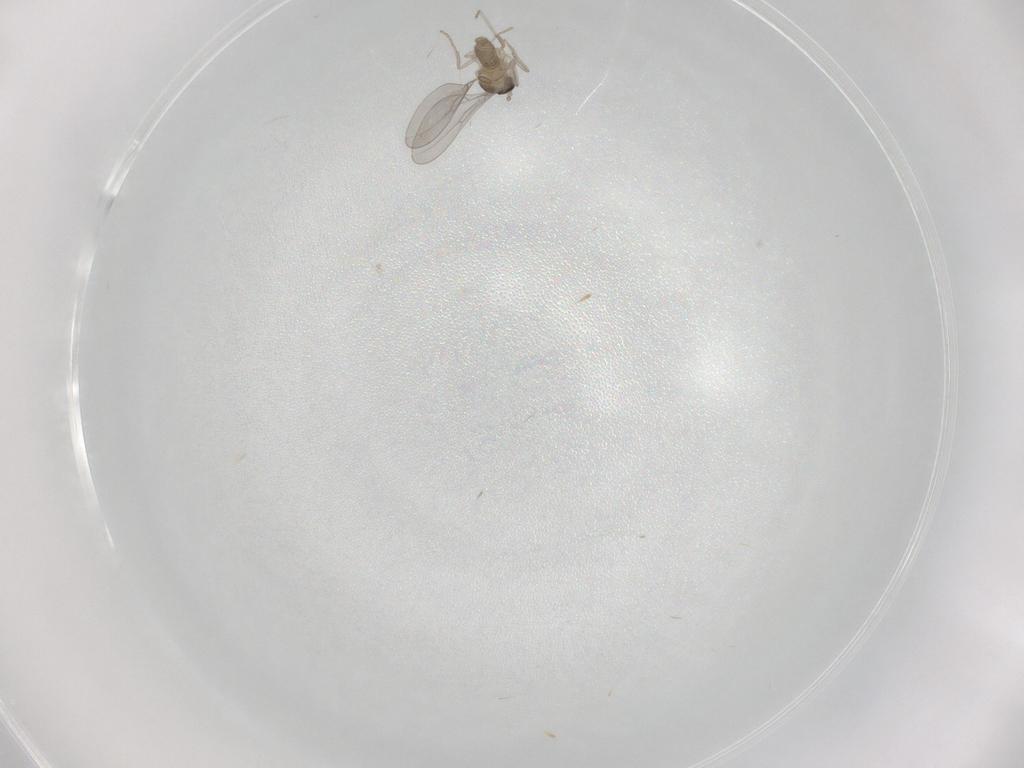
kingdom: Animalia
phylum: Arthropoda
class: Insecta
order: Diptera
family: Cecidomyiidae
